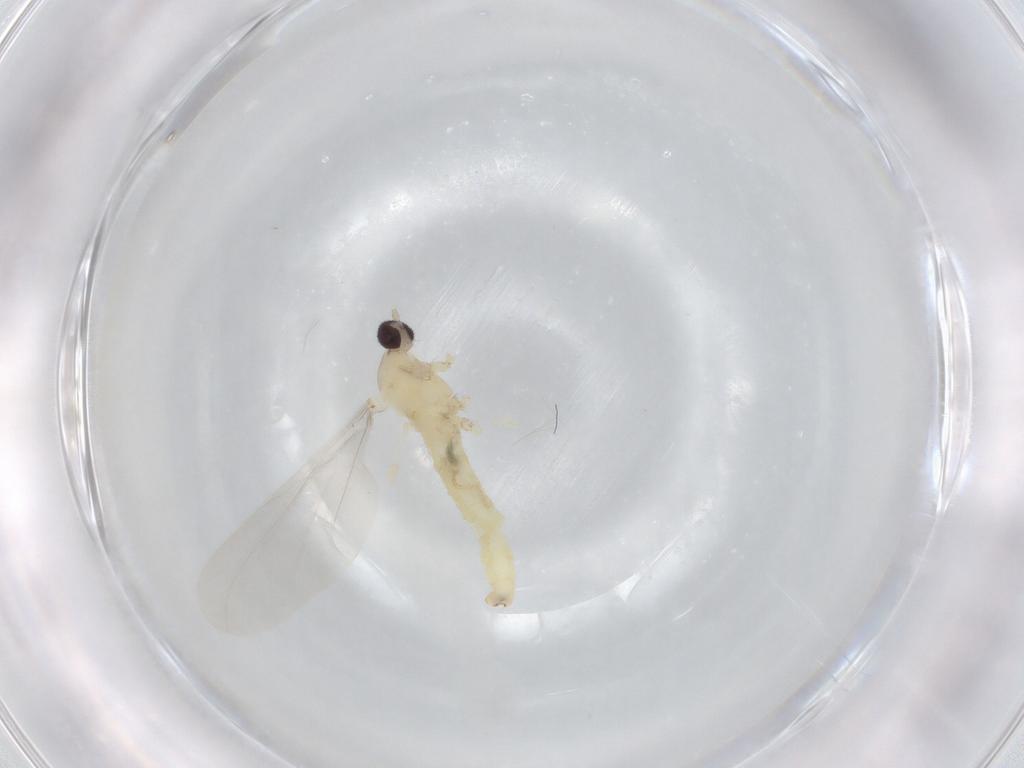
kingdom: Animalia
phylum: Arthropoda
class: Insecta
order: Diptera
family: Cecidomyiidae
